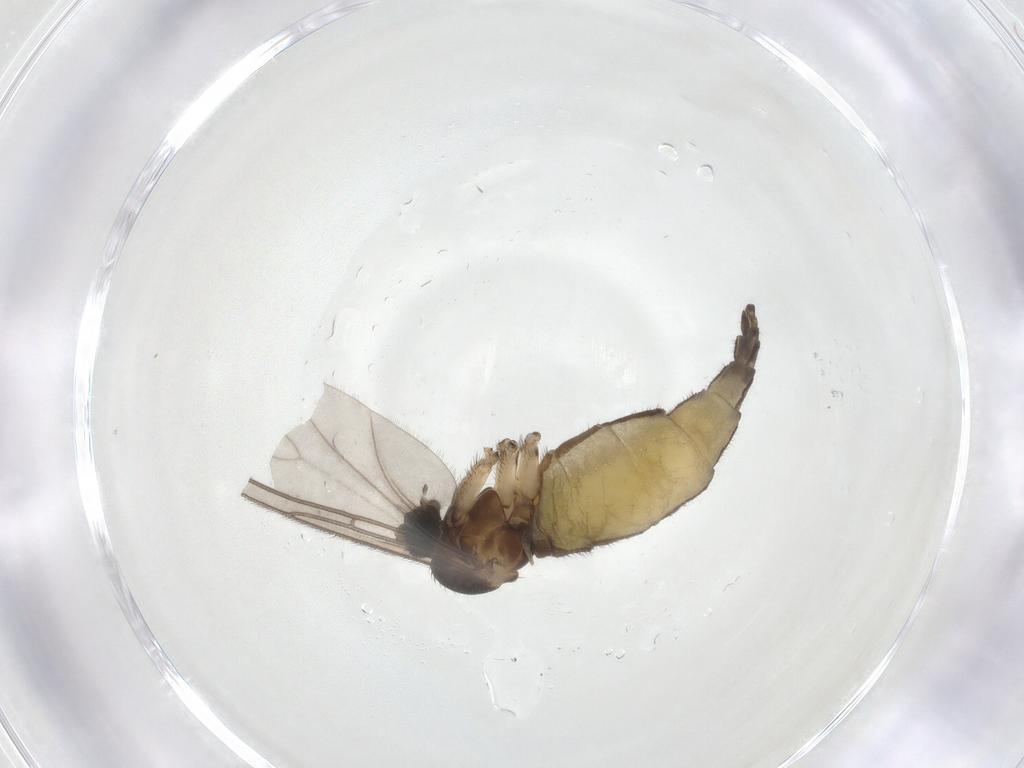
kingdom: Animalia
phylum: Arthropoda
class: Insecta
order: Diptera
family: Sciaridae
